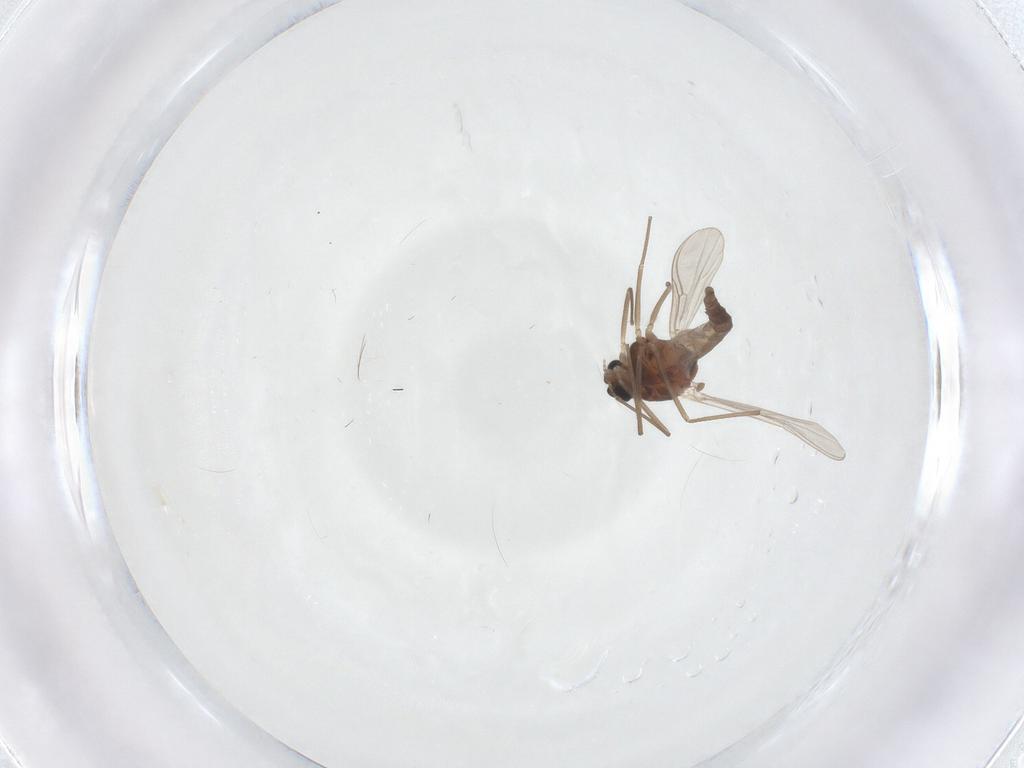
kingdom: Animalia
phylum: Arthropoda
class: Insecta
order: Diptera
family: Chironomidae
